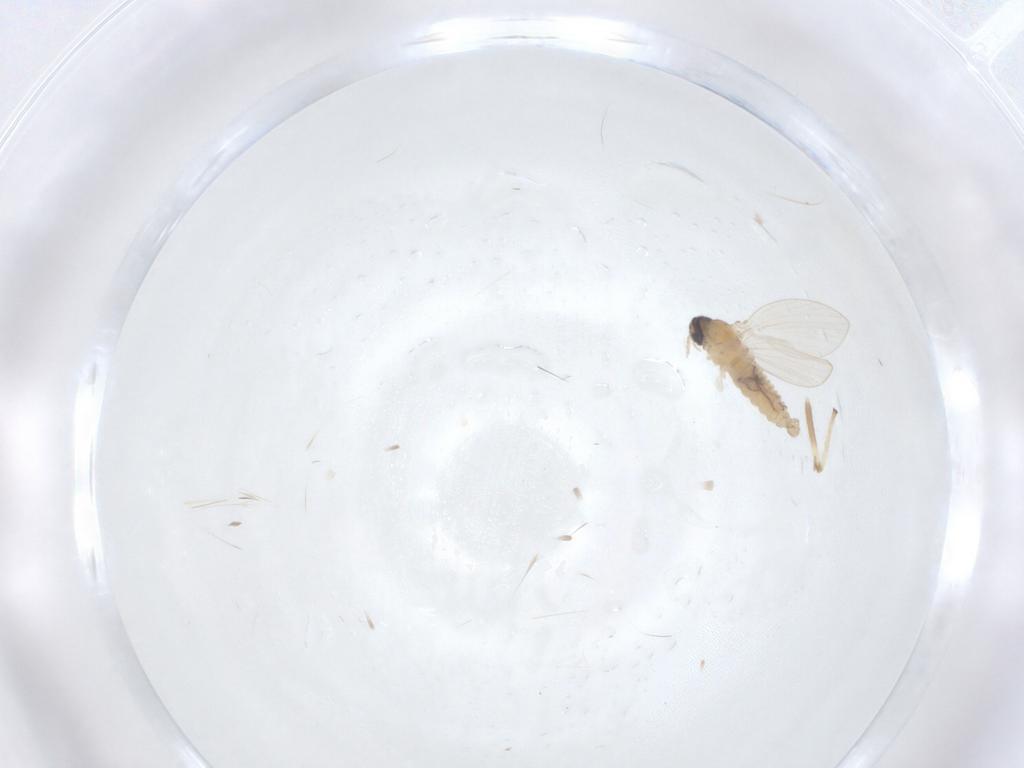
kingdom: Animalia
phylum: Arthropoda
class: Insecta
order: Diptera
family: Psychodidae
